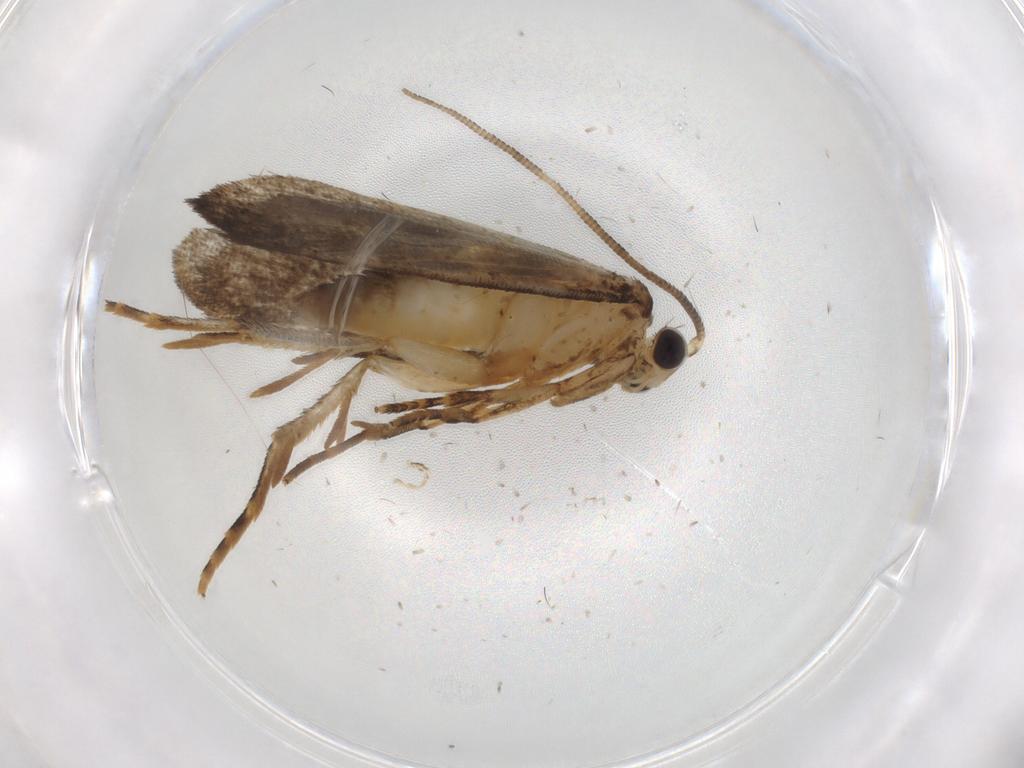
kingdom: Animalia
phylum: Arthropoda
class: Insecta
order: Lepidoptera
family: Tineidae
